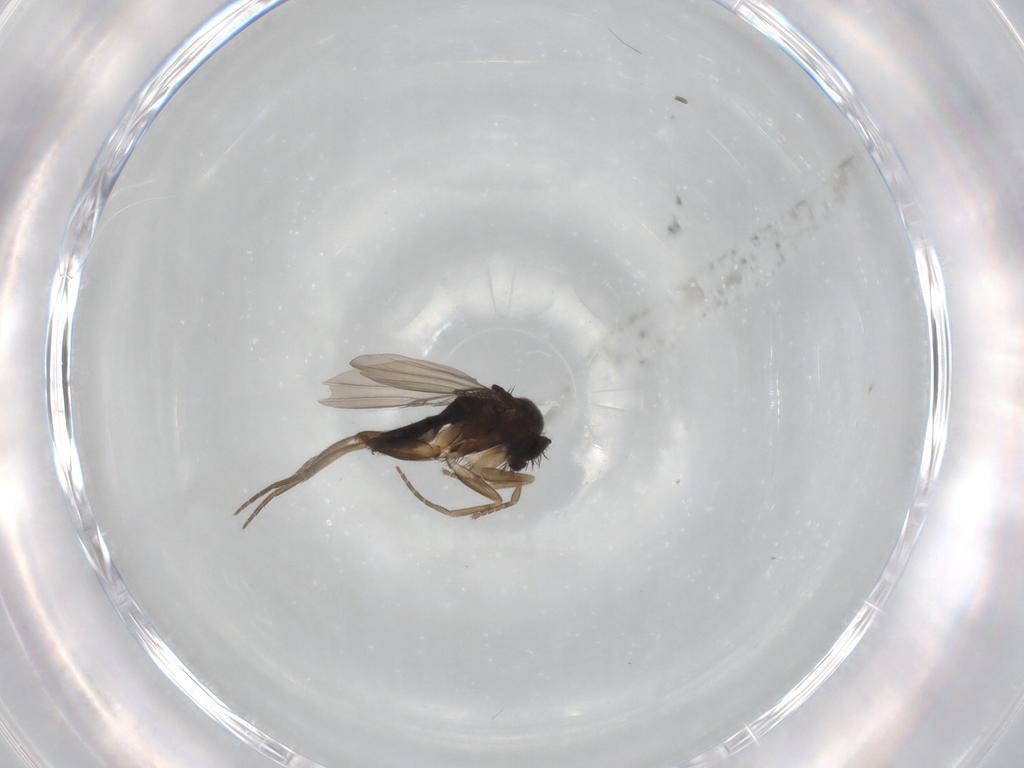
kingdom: Animalia
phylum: Arthropoda
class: Insecta
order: Diptera
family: Phoridae
